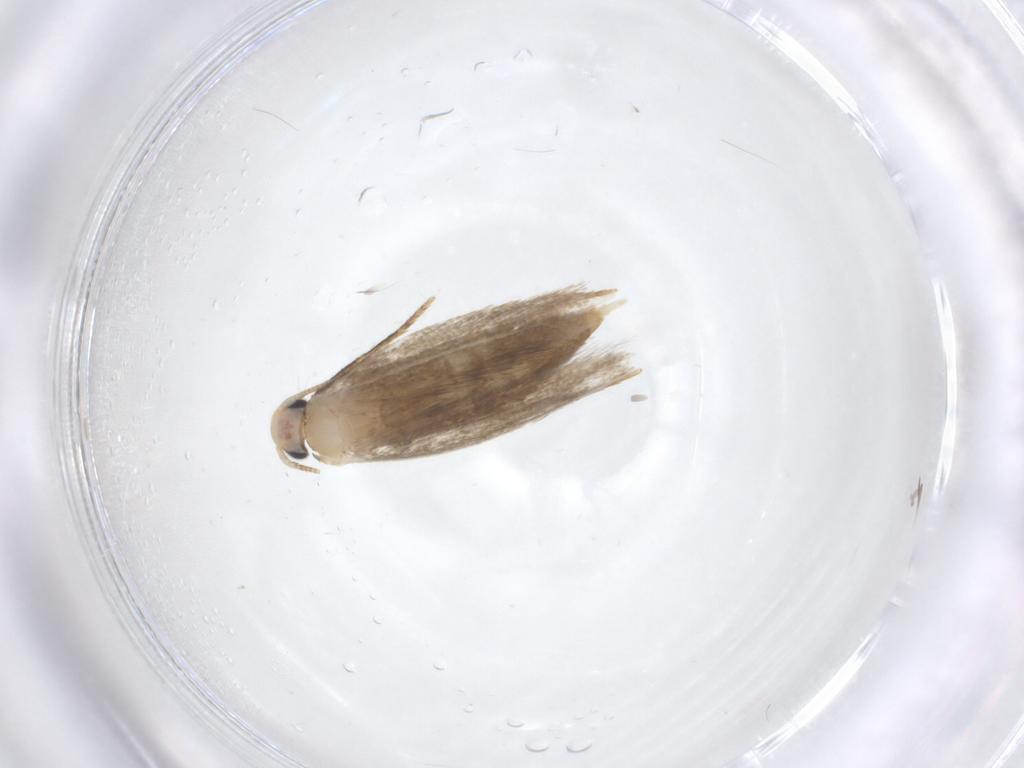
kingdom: Animalia
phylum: Arthropoda
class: Insecta
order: Lepidoptera
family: Tineidae
